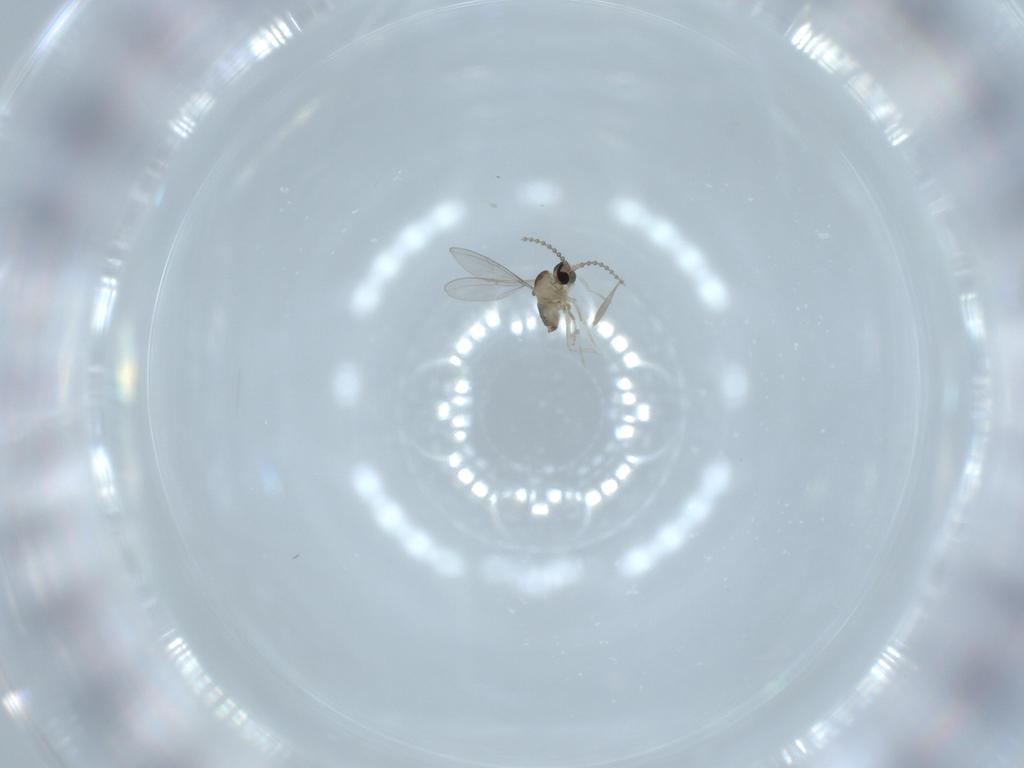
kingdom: Animalia
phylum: Arthropoda
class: Insecta
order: Diptera
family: Cecidomyiidae
